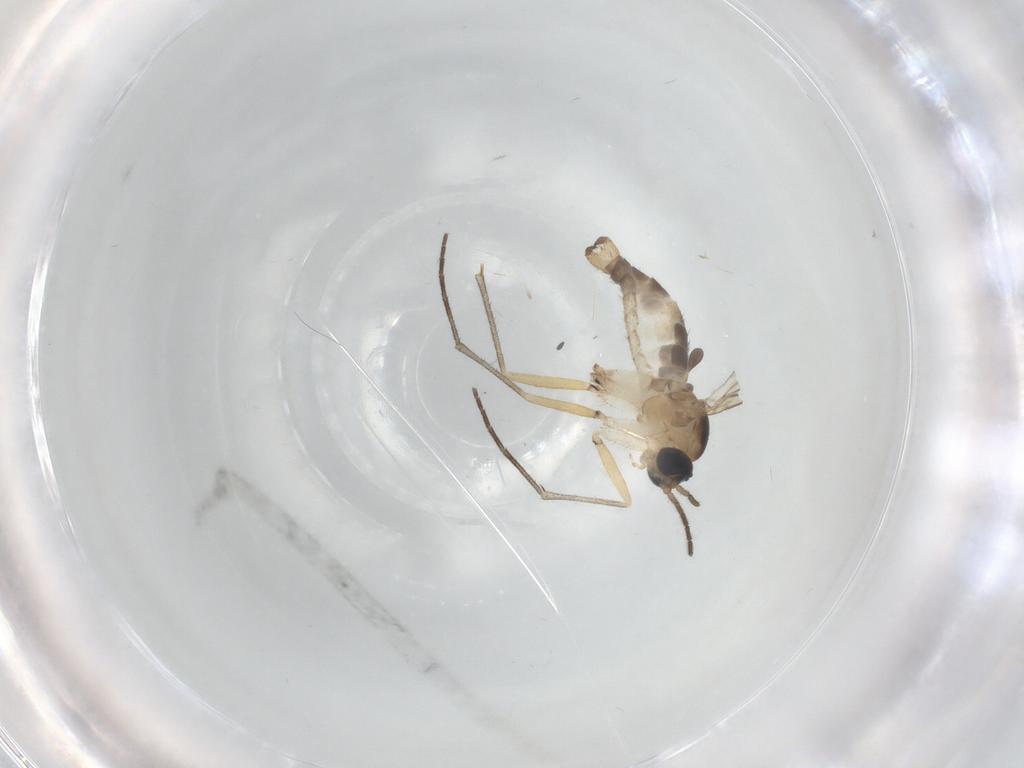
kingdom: Animalia
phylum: Arthropoda
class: Insecta
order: Diptera
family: Sciaridae
